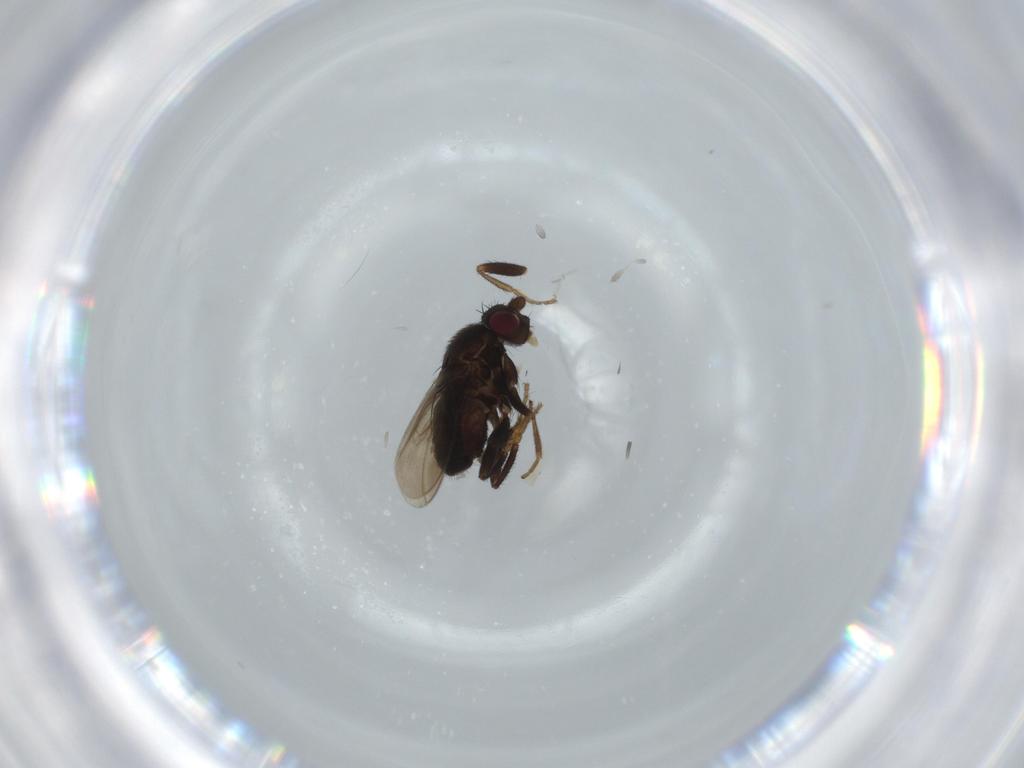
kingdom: Animalia
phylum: Arthropoda
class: Insecta
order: Diptera
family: Sphaeroceridae
